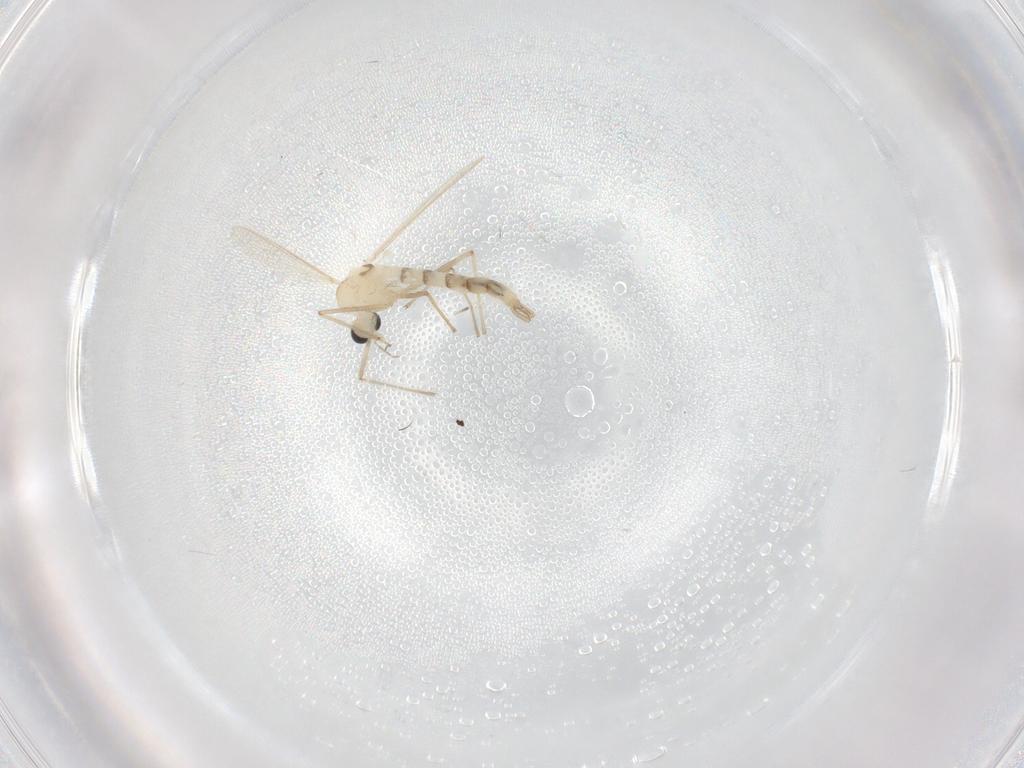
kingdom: Animalia
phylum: Arthropoda
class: Insecta
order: Diptera
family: Chironomidae
